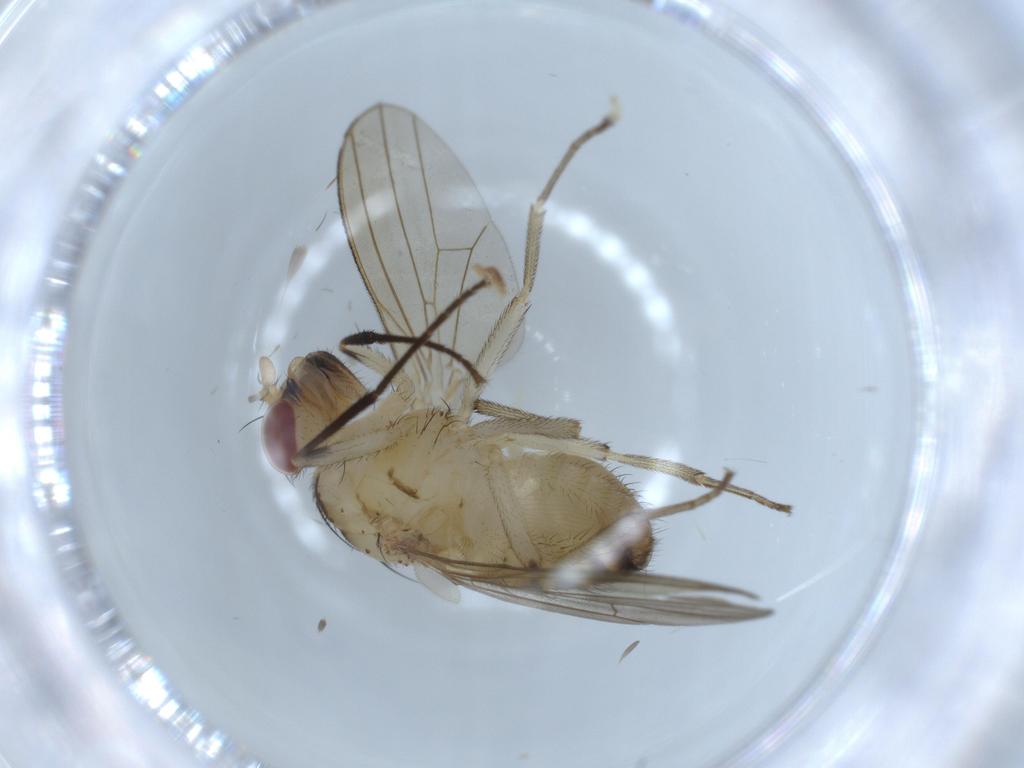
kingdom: Animalia
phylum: Arthropoda
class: Insecta
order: Diptera
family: Lauxaniidae
